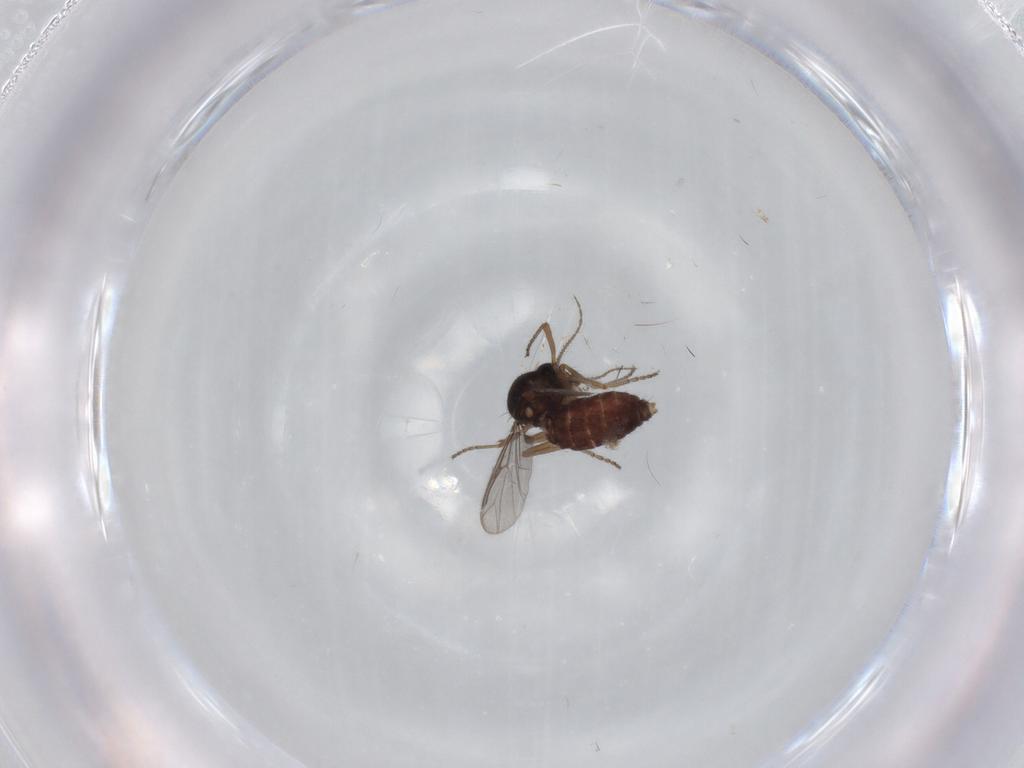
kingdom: Animalia
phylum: Arthropoda
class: Insecta
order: Diptera
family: Ceratopogonidae
